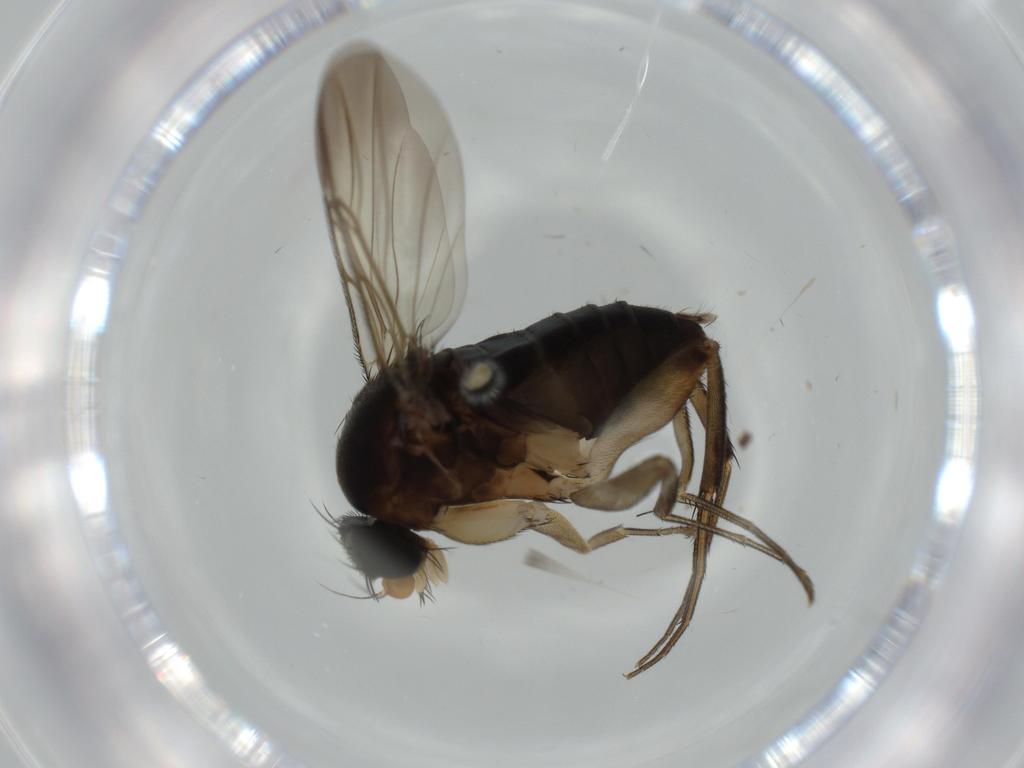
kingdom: Animalia
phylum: Arthropoda
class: Insecta
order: Diptera
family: Phoridae
